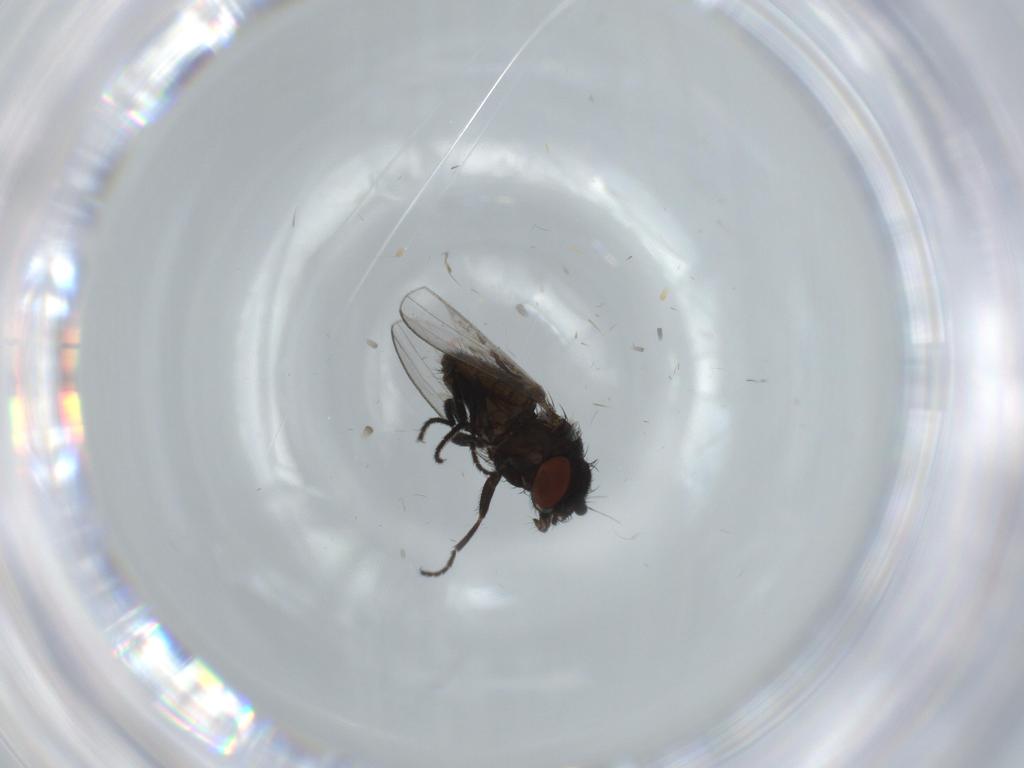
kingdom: Animalia
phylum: Arthropoda
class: Insecta
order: Diptera
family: Milichiidae
